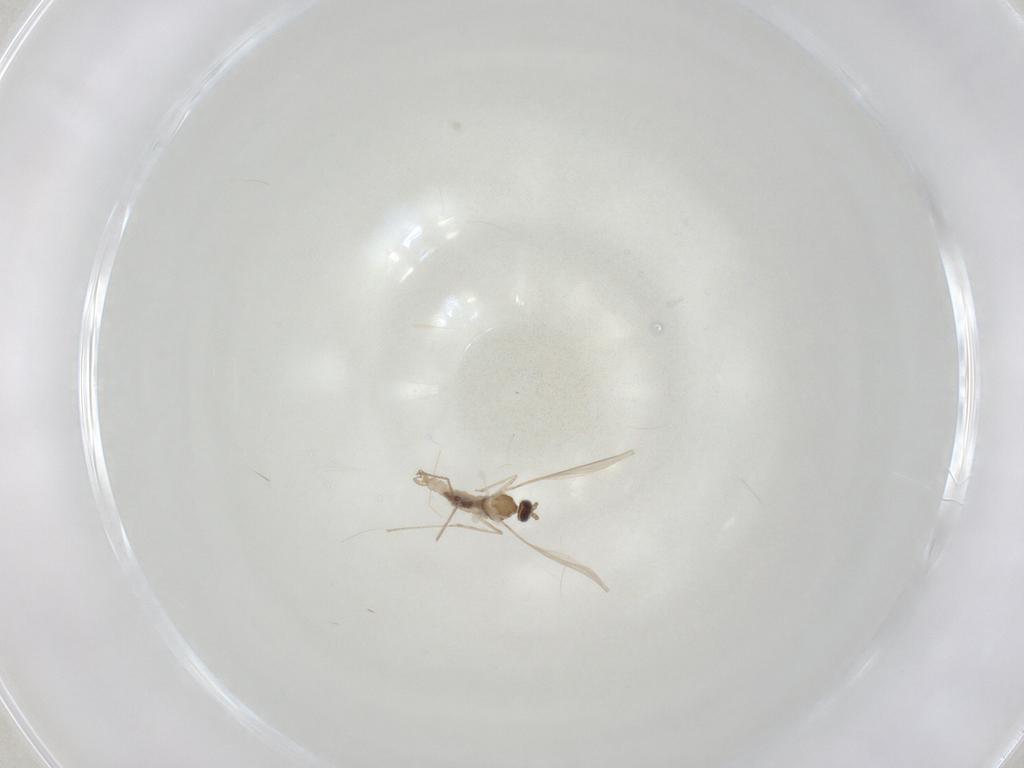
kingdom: Animalia
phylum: Arthropoda
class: Insecta
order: Diptera
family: Cecidomyiidae
